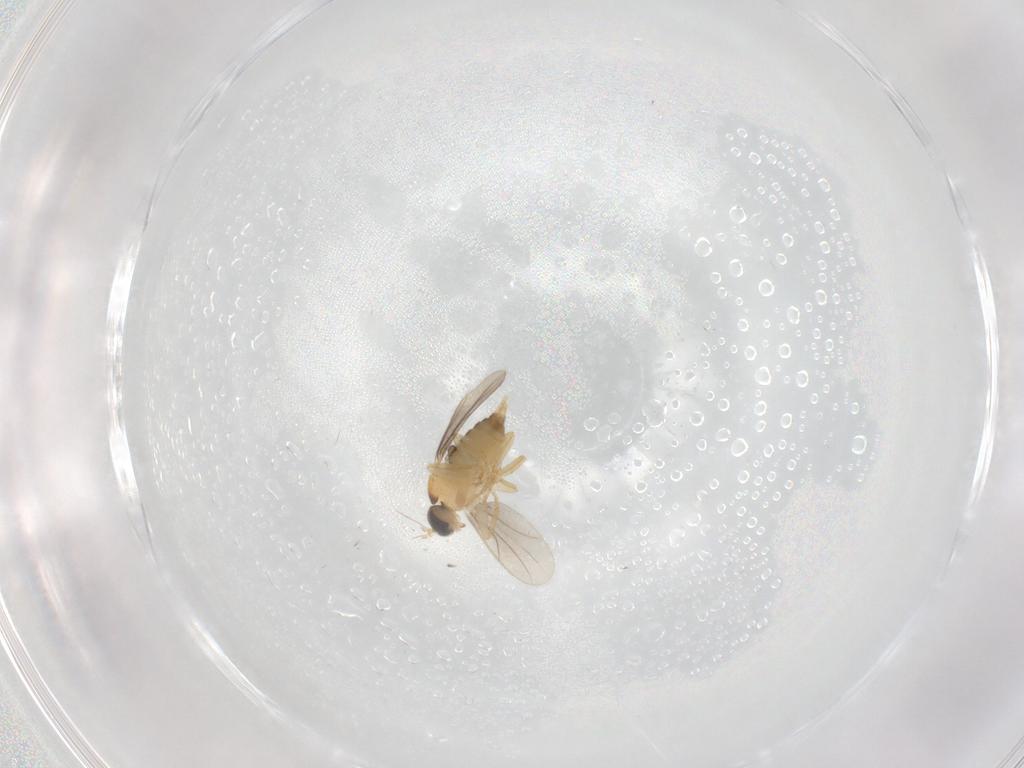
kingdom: Animalia
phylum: Arthropoda
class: Insecta
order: Diptera
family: Hybotidae
